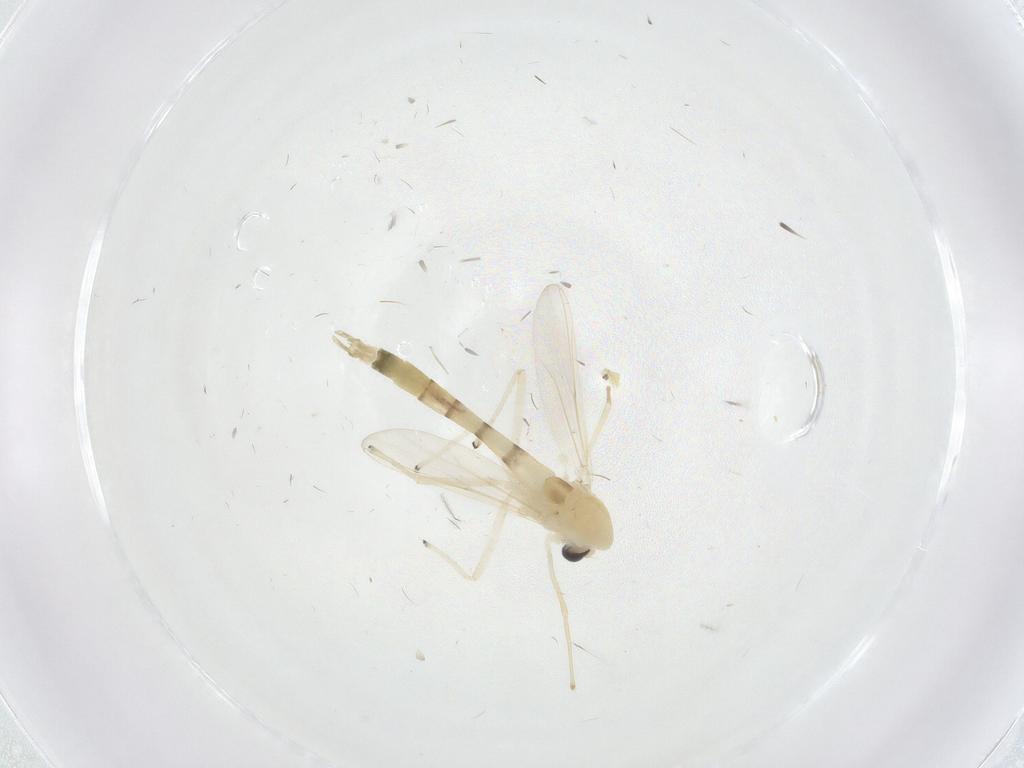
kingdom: Animalia
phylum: Arthropoda
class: Insecta
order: Diptera
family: Chironomidae
